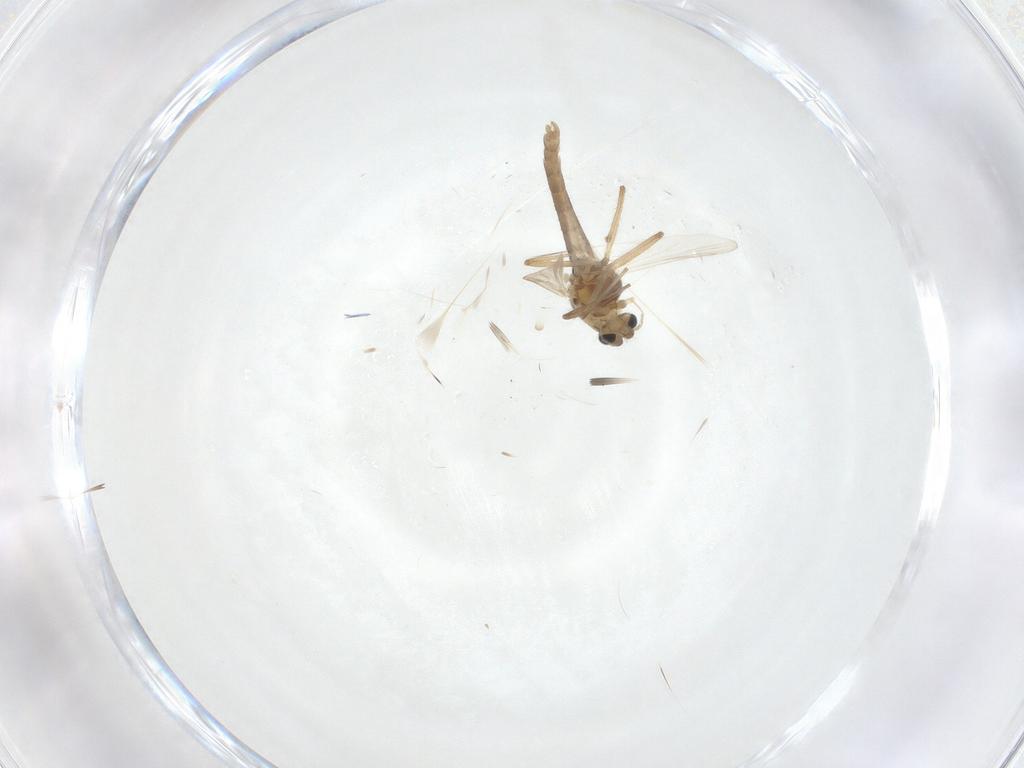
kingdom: Animalia
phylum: Arthropoda
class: Insecta
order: Diptera
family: Chironomidae
